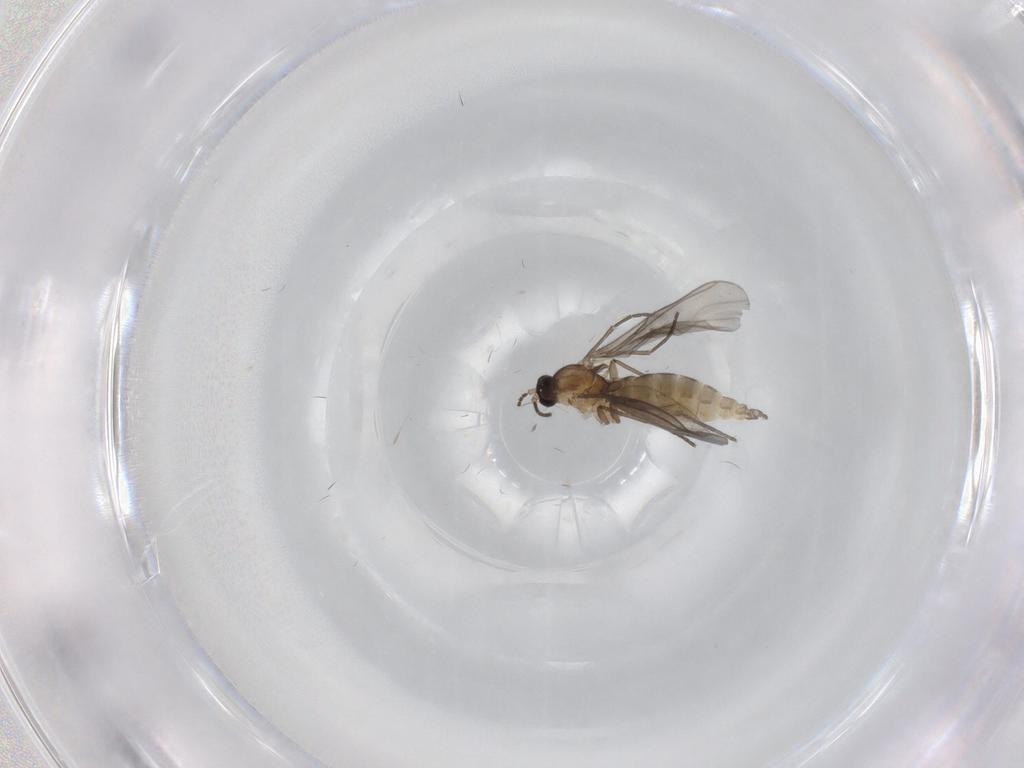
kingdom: Animalia
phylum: Arthropoda
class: Insecta
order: Diptera
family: Sciaridae
